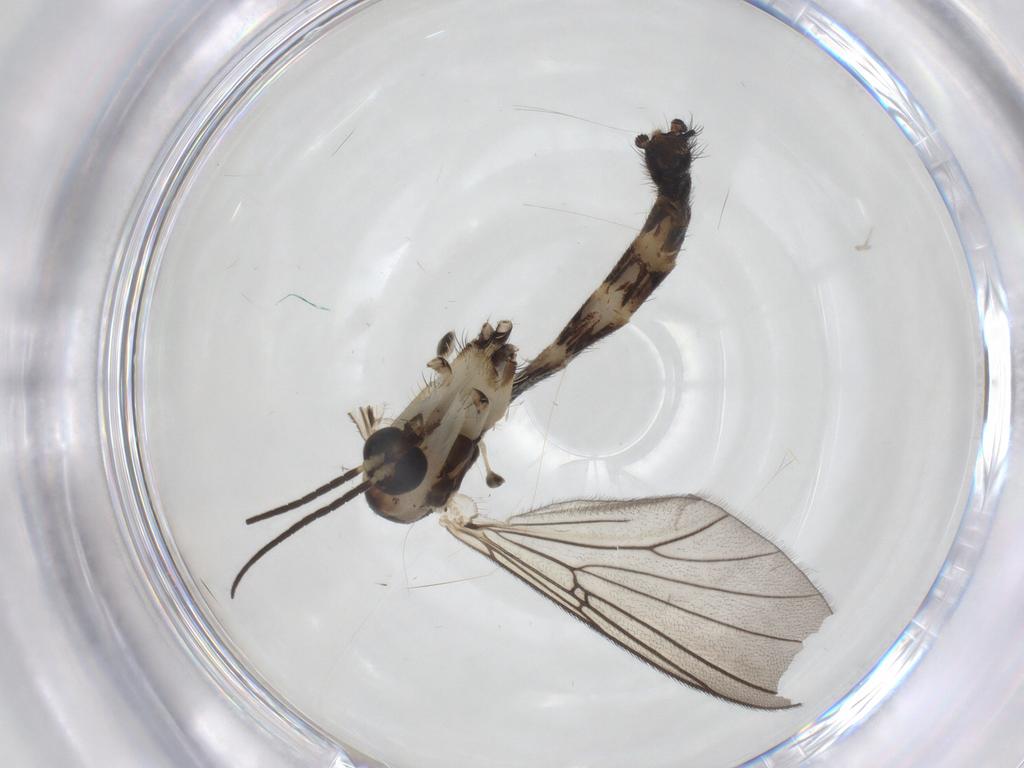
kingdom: Animalia
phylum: Arthropoda
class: Insecta
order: Diptera
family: Mycetophilidae
